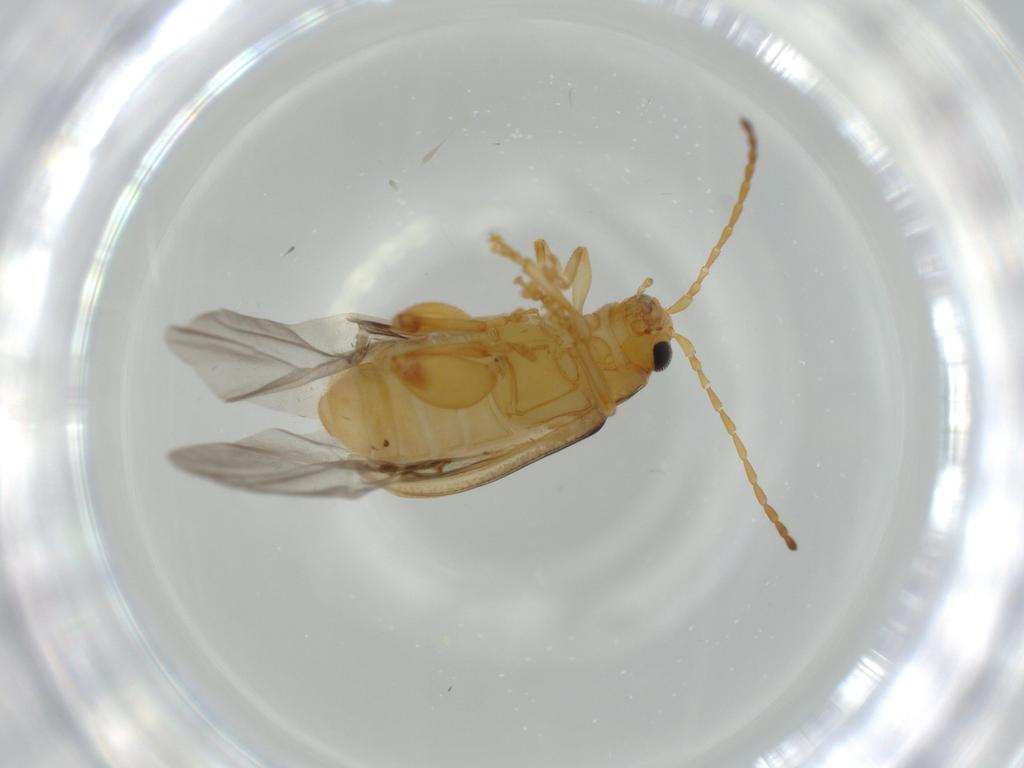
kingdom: Animalia
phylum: Arthropoda
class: Insecta
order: Coleoptera
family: Chrysomelidae
